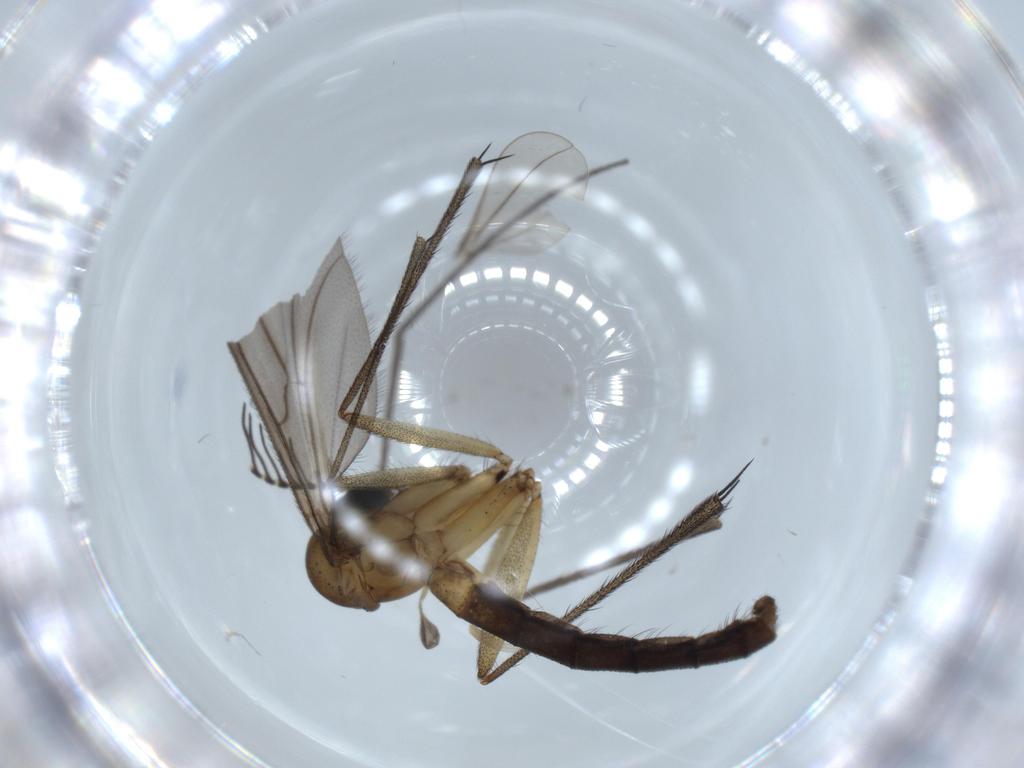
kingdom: Animalia
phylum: Arthropoda
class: Insecta
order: Diptera
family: Ditomyiidae
